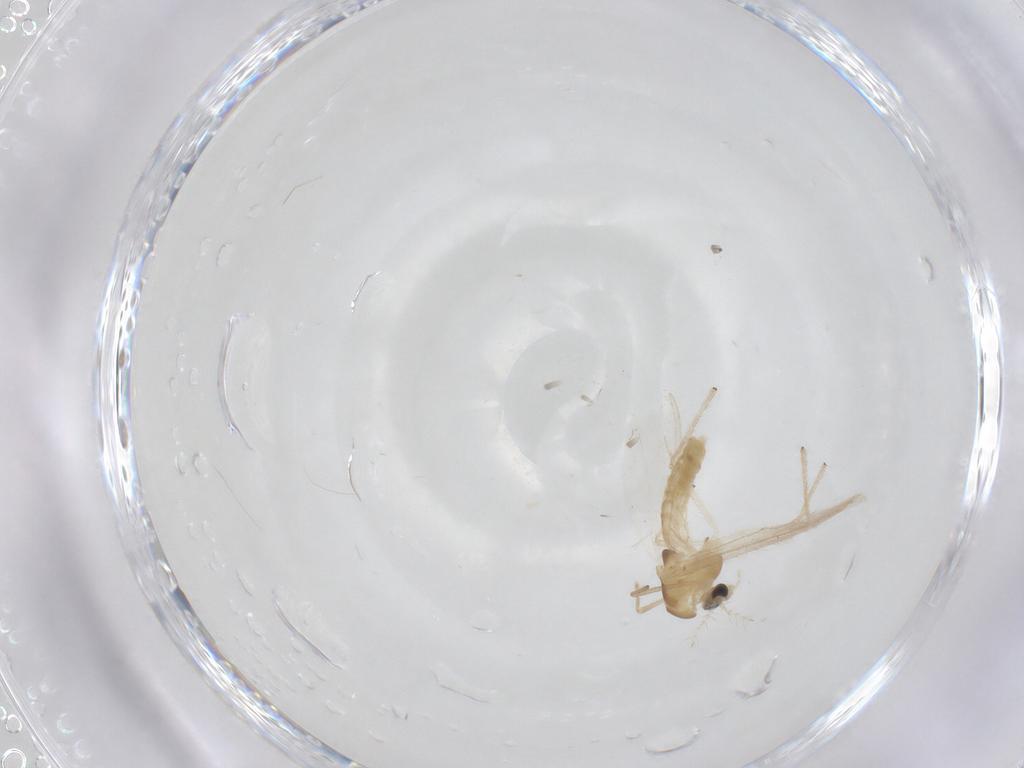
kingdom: Animalia
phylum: Arthropoda
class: Insecta
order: Diptera
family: Chironomidae
